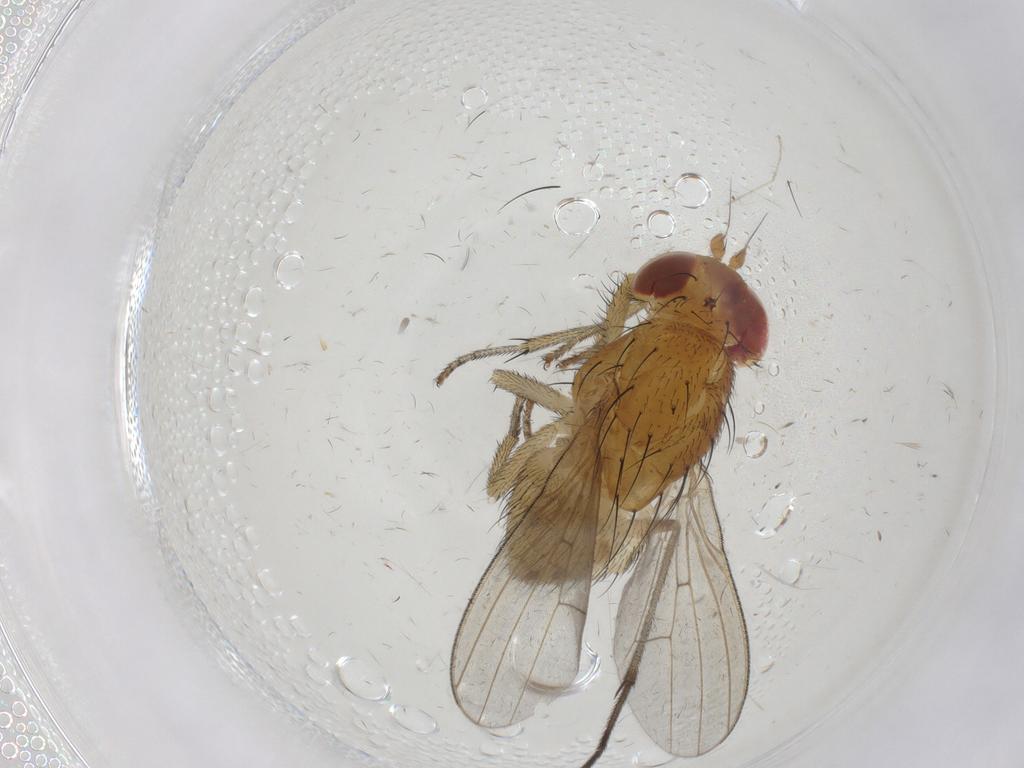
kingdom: Animalia
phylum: Arthropoda
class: Insecta
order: Diptera
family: Sciaridae
